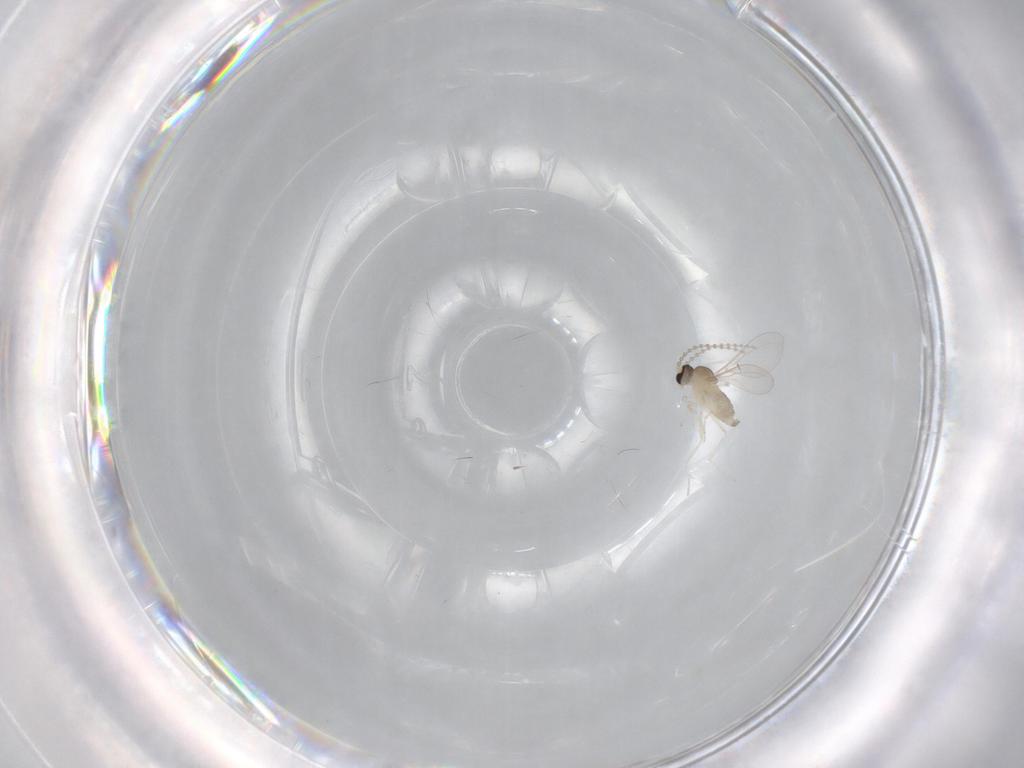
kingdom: Animalia
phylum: Arthropoda
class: Insecta
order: Diptera
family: Cecidomyiidae
